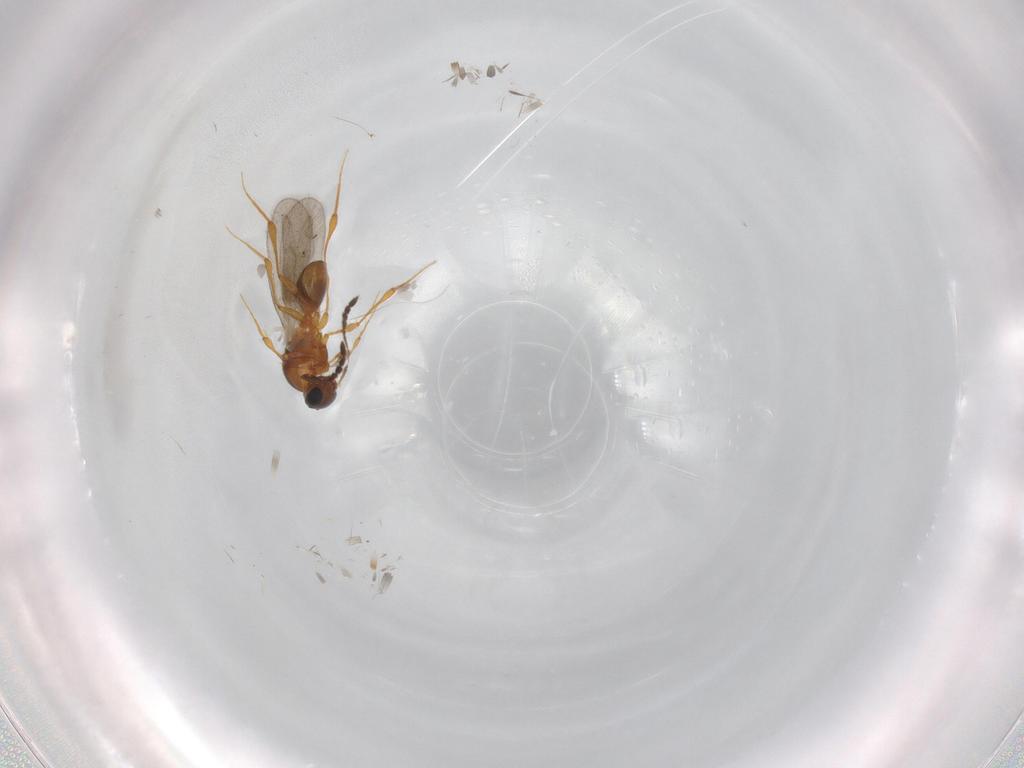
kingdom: Animalia
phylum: Arthropoda
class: Insecta
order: Hymenoptera
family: Platygastridae
